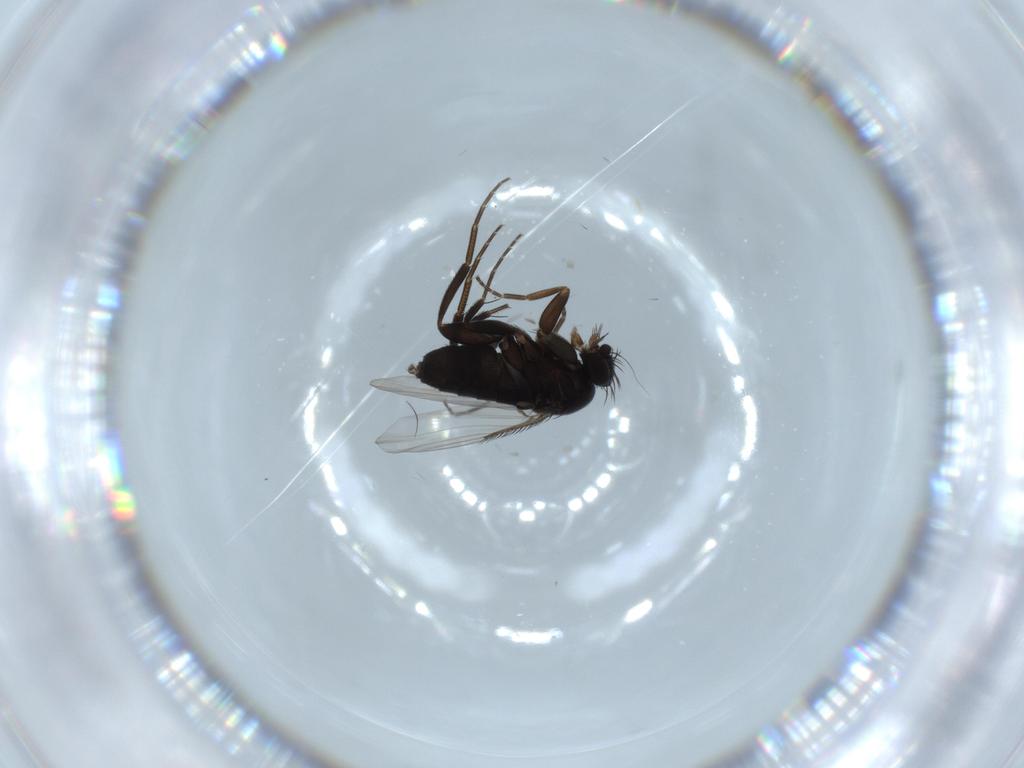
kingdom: Animalia
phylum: Arthropoda
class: Insecta
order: Diptera
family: Phoridae
